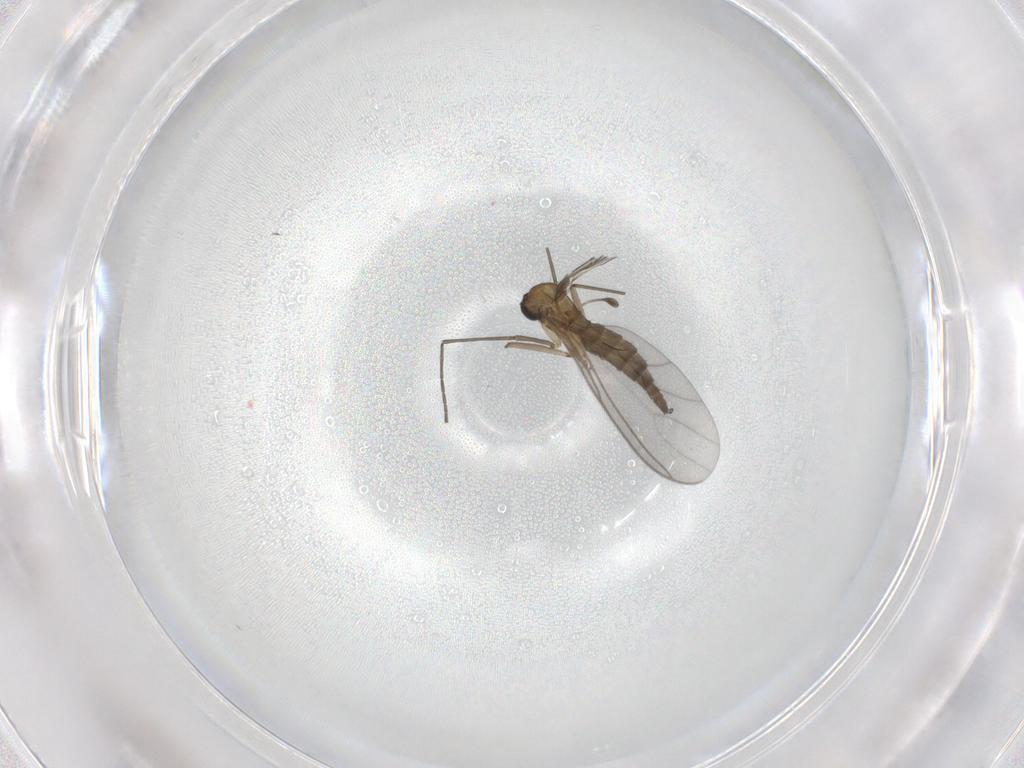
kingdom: Animalia
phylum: Arthropoda
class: Insecta
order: Diptera
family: Sciaridae
